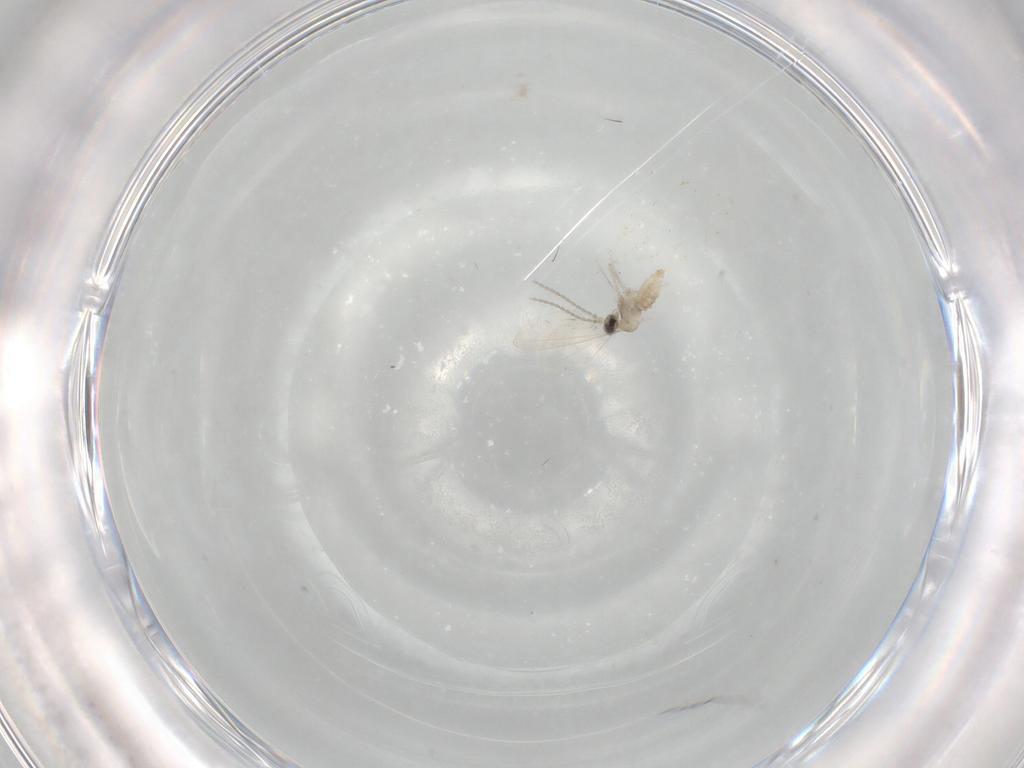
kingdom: Animalia
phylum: Arthropoda
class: Insecta
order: Diptera
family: Cecidomyiidae
